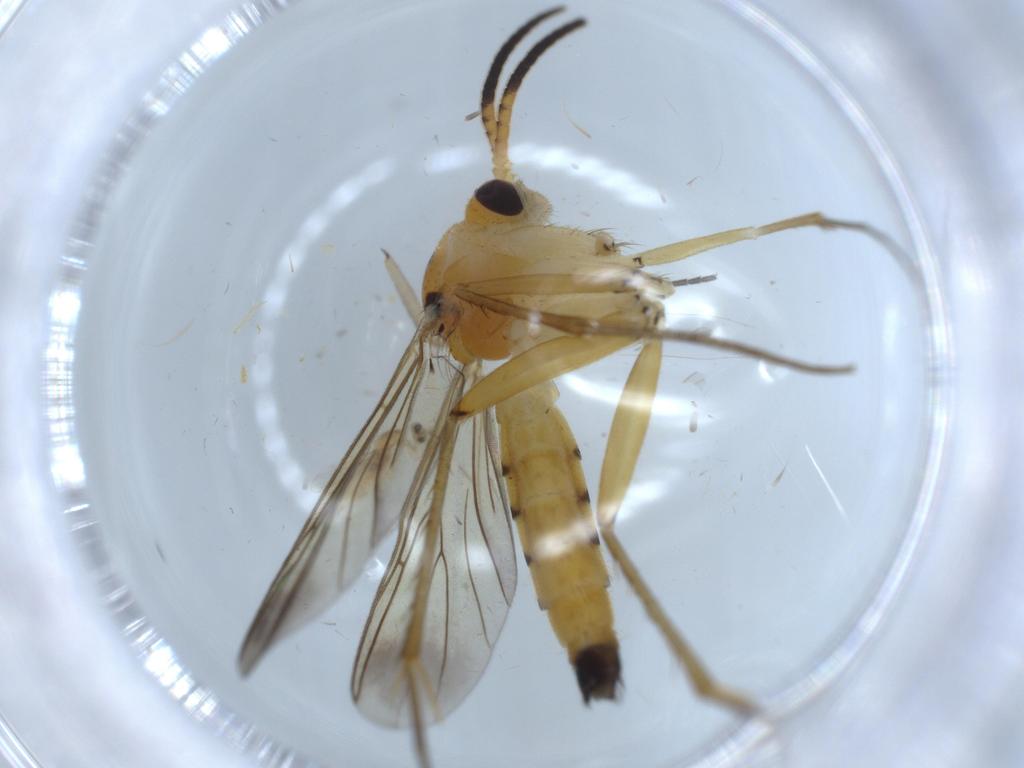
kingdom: Animalia
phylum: Arthropoda
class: Insecta
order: Diptera
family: Mycetophilidae
